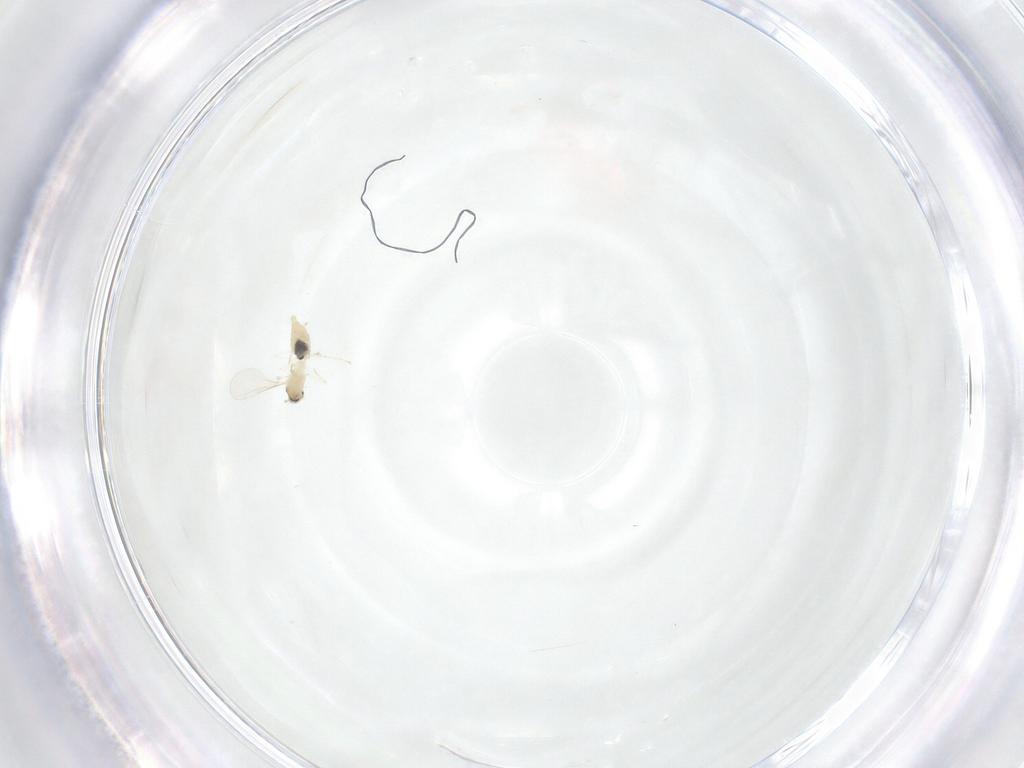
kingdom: Animalia
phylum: Arthropoda
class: Insecta
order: Diptera
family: Cecidomyiidae
